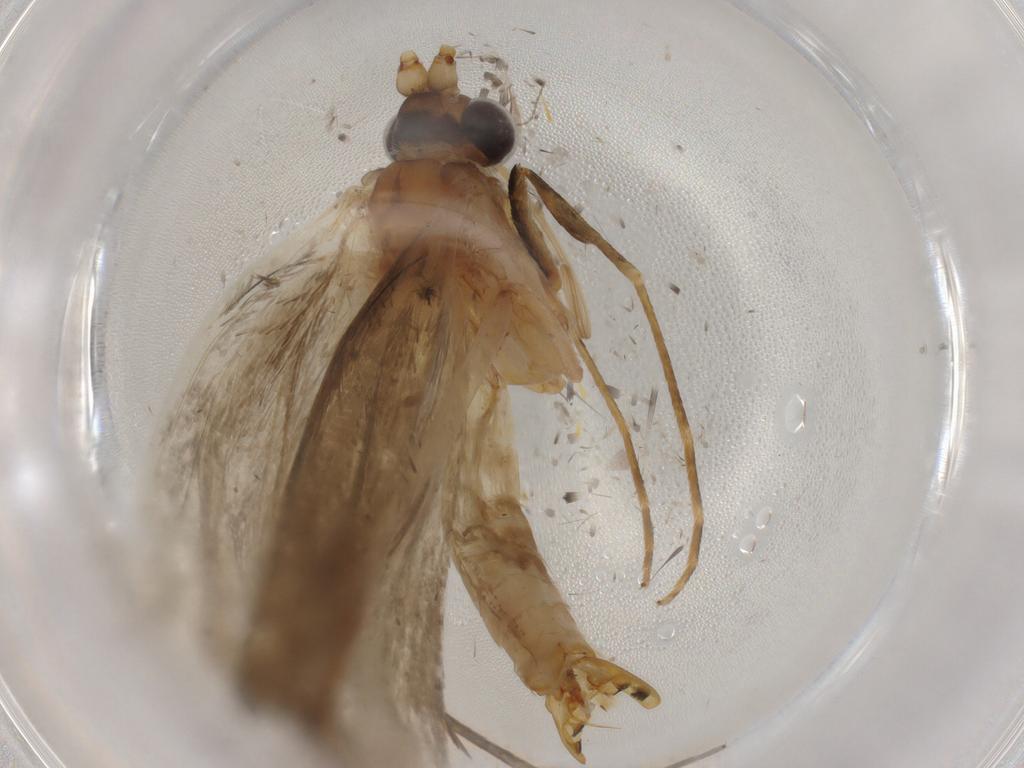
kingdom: Animalia
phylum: Arthropoda
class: Insecta
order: Lepidoptera
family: Adelidae
